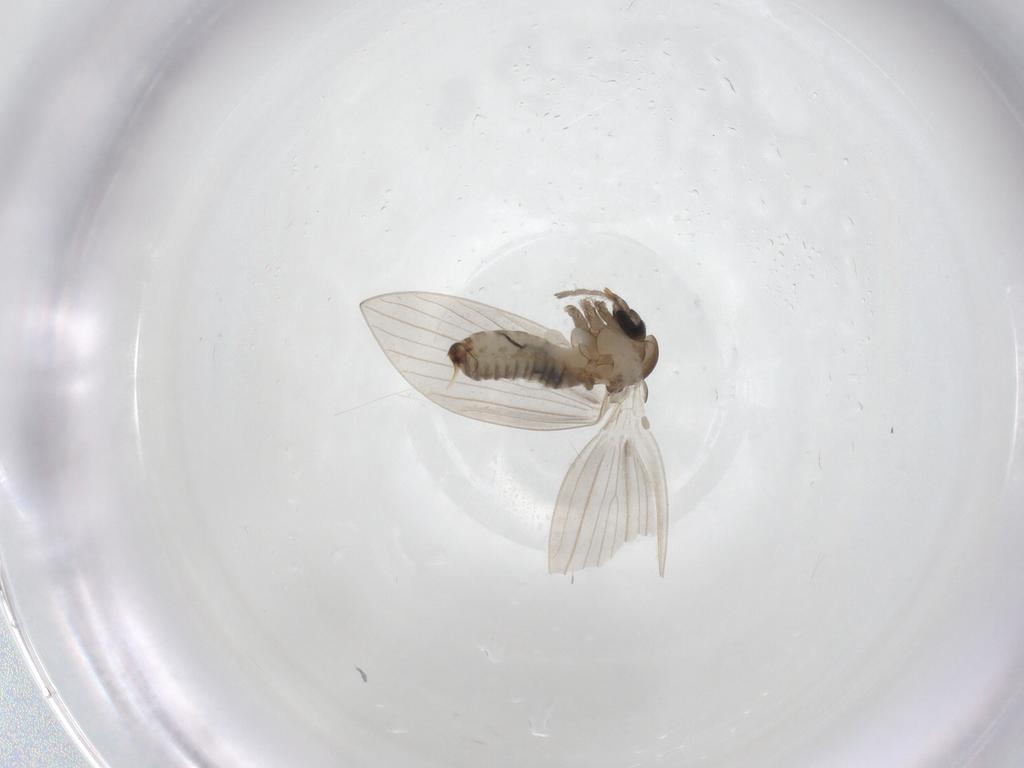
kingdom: Animalia
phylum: Arthropoda
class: Insecta
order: Diptera
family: Psychodidae
